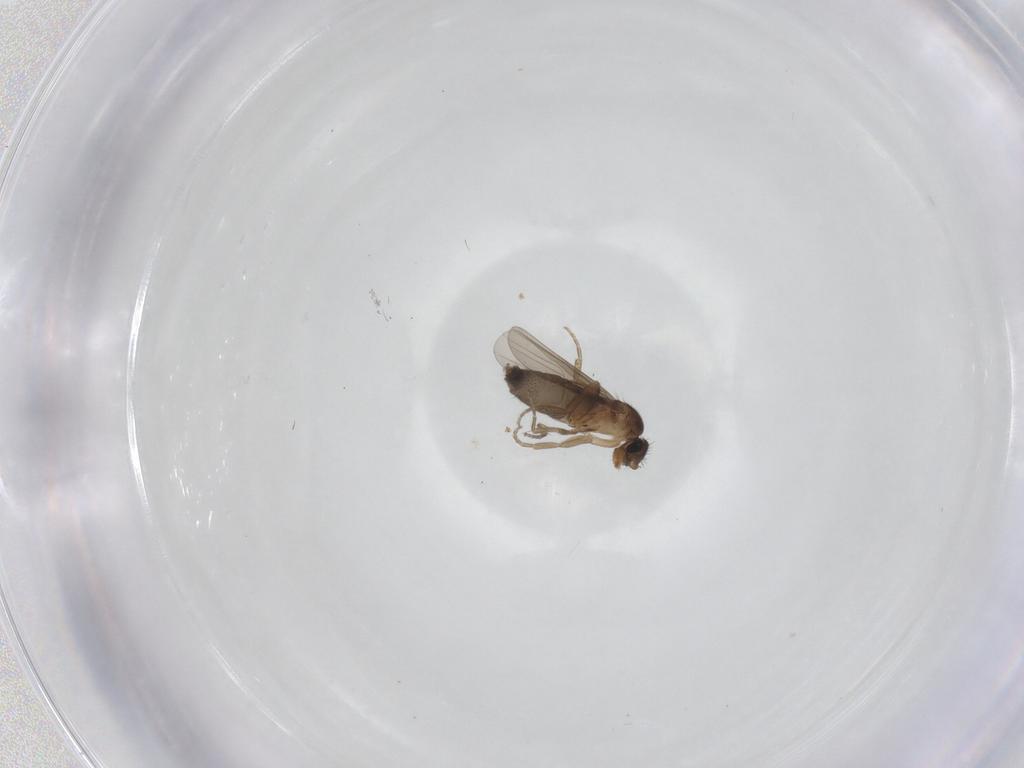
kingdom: Animalia
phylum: Arthropoda
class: Insecta
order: Diptera
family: Phoridae
